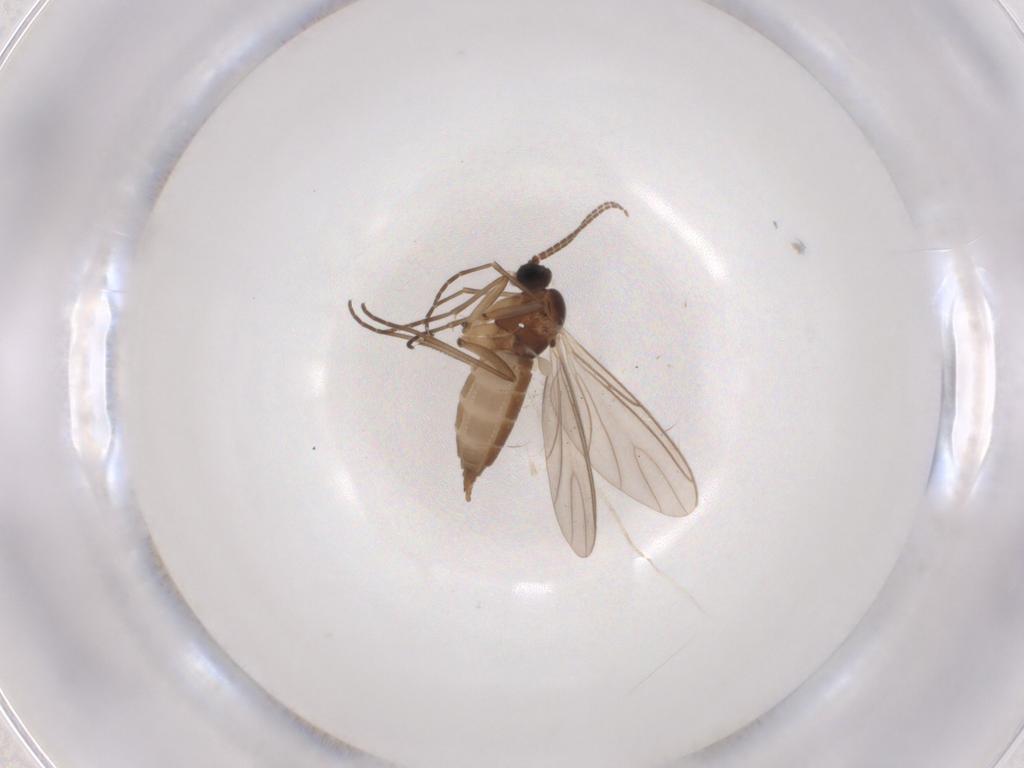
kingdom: Animalia
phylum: Arthropoda
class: Insecta
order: Diptera
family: Sciaridae
